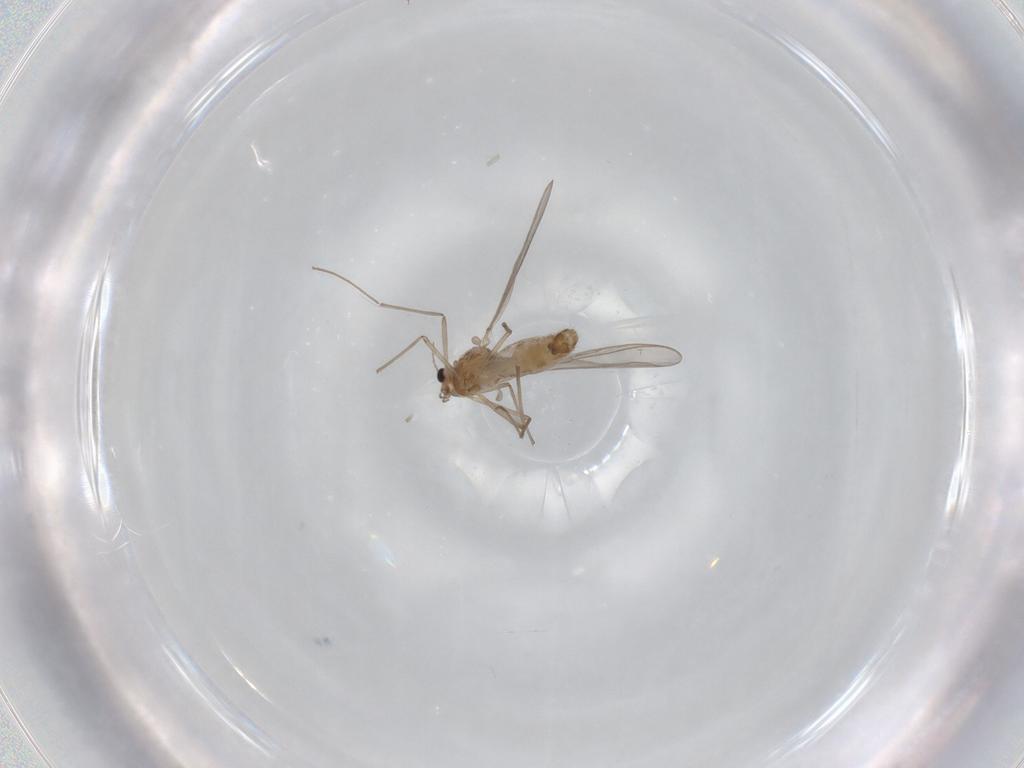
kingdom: Animalia
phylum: Arthropoda
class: Insecta
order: Diptera
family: Chironomidae
